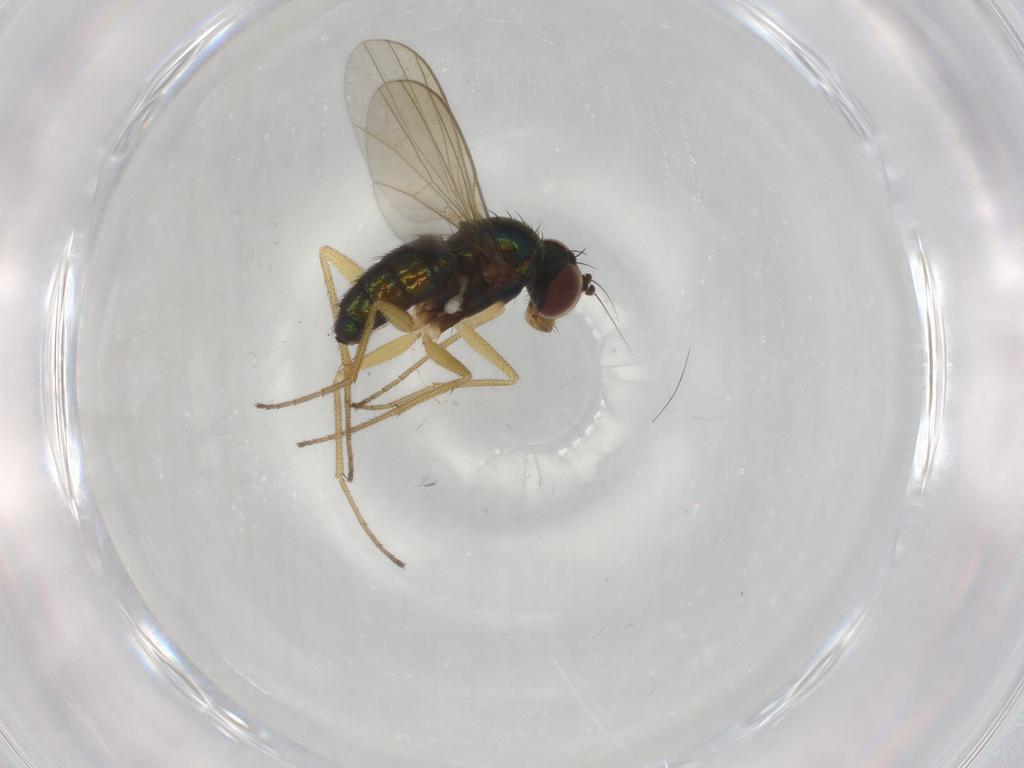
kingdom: Animalia
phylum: Arthropoda
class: Insecta
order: Diptera
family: Dolichopodidae
